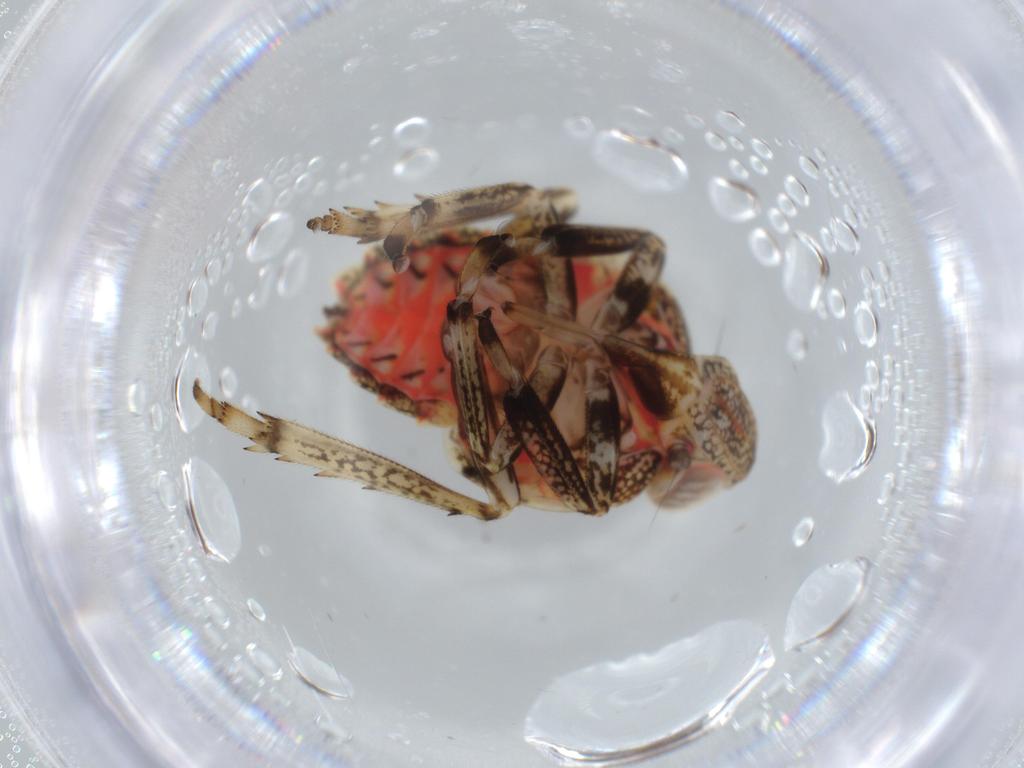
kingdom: Animalia
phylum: Arthropoda
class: Insecta
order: Hemiptera
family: Issidae
